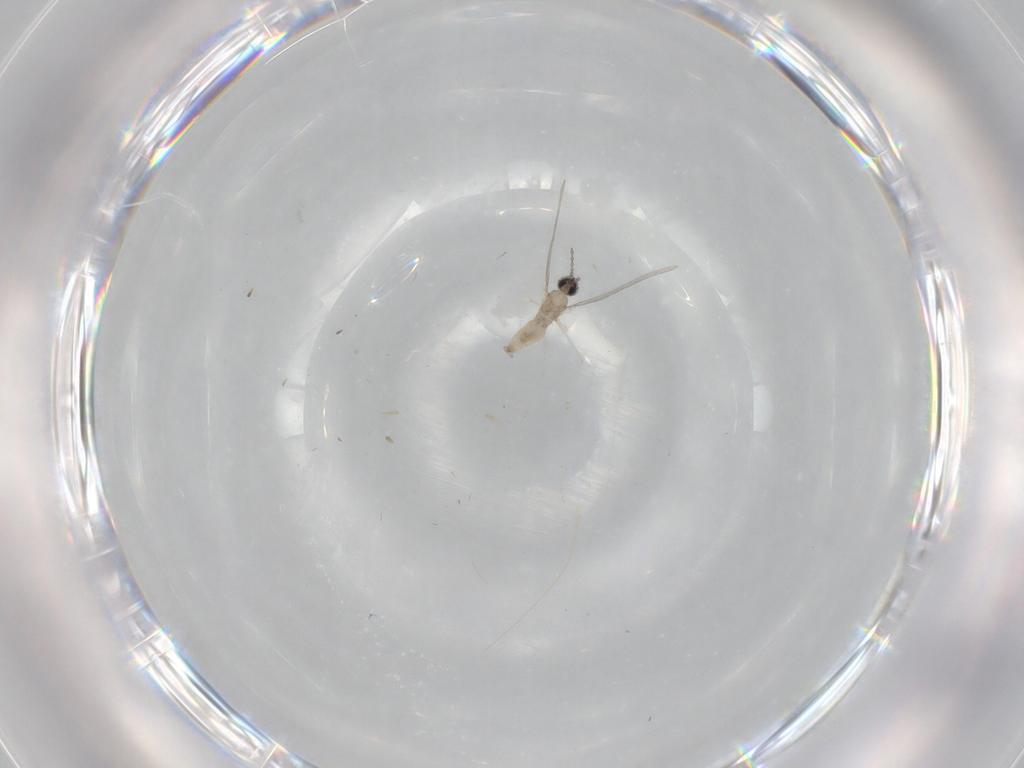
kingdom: Animalia
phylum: Arthropoda
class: Insecta
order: Diptera
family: Cecidomyiidae
